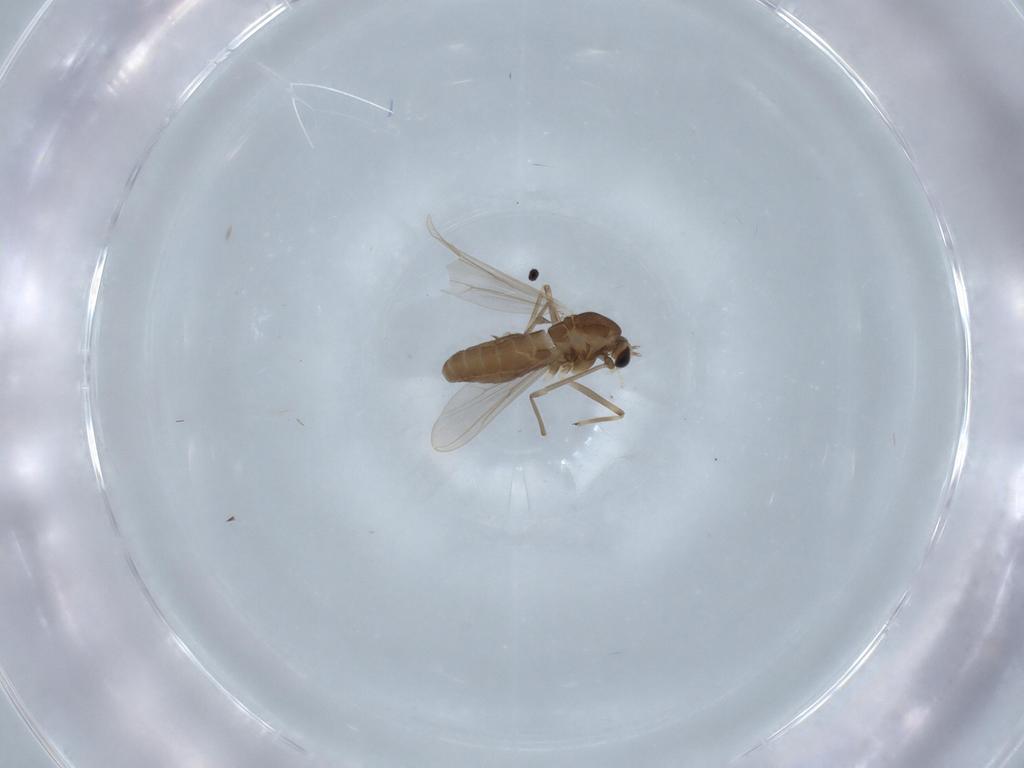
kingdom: Animalia
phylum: Arthropoda
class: Insecta
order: Diptera
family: Chironomidae
